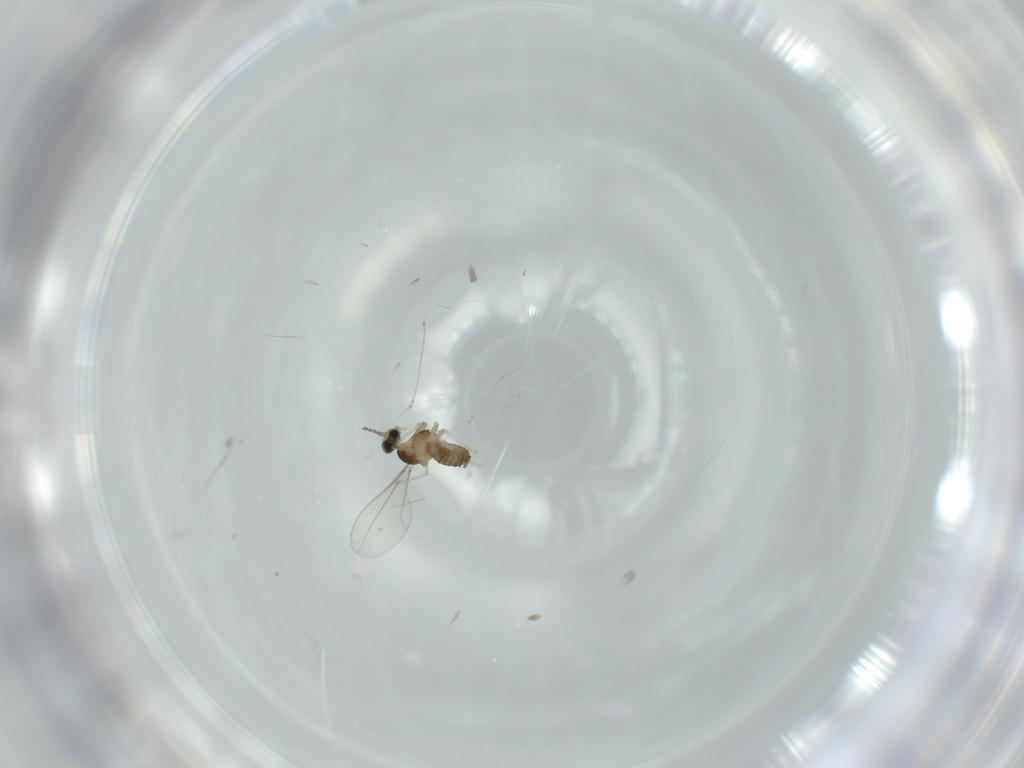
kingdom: Animalia
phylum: Arthropoda
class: Insecta
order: Diptera
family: Cecidomyiidae
